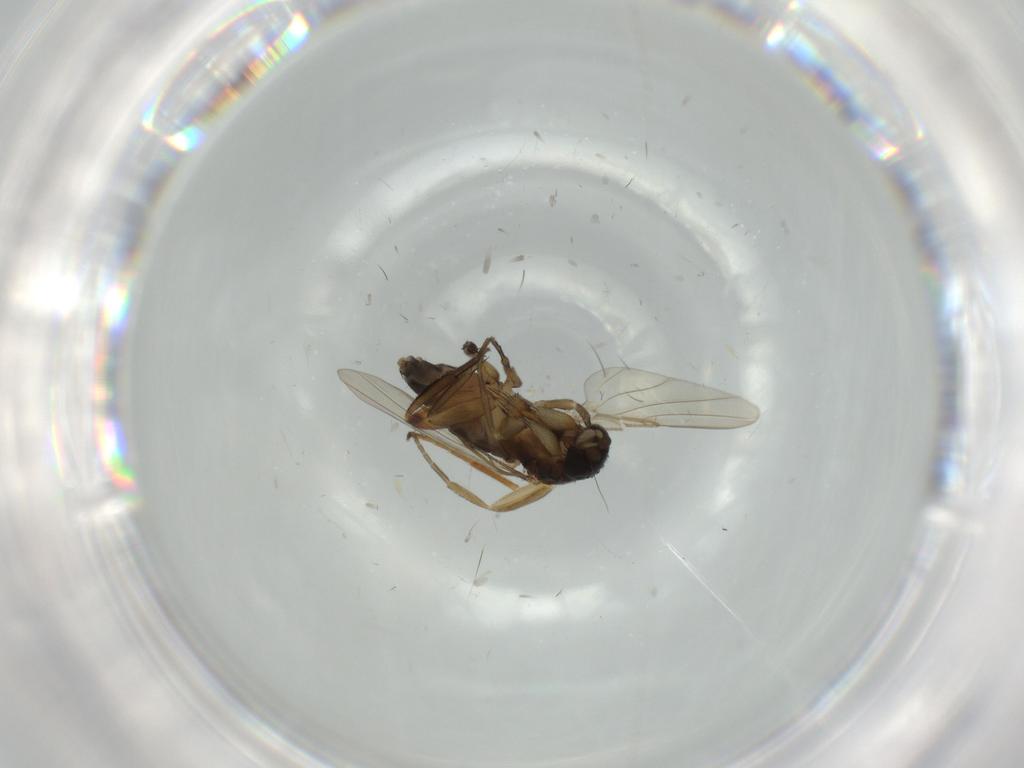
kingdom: Animalia
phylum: Arthropoda
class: Insecta
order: Diptera
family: Phoridae
